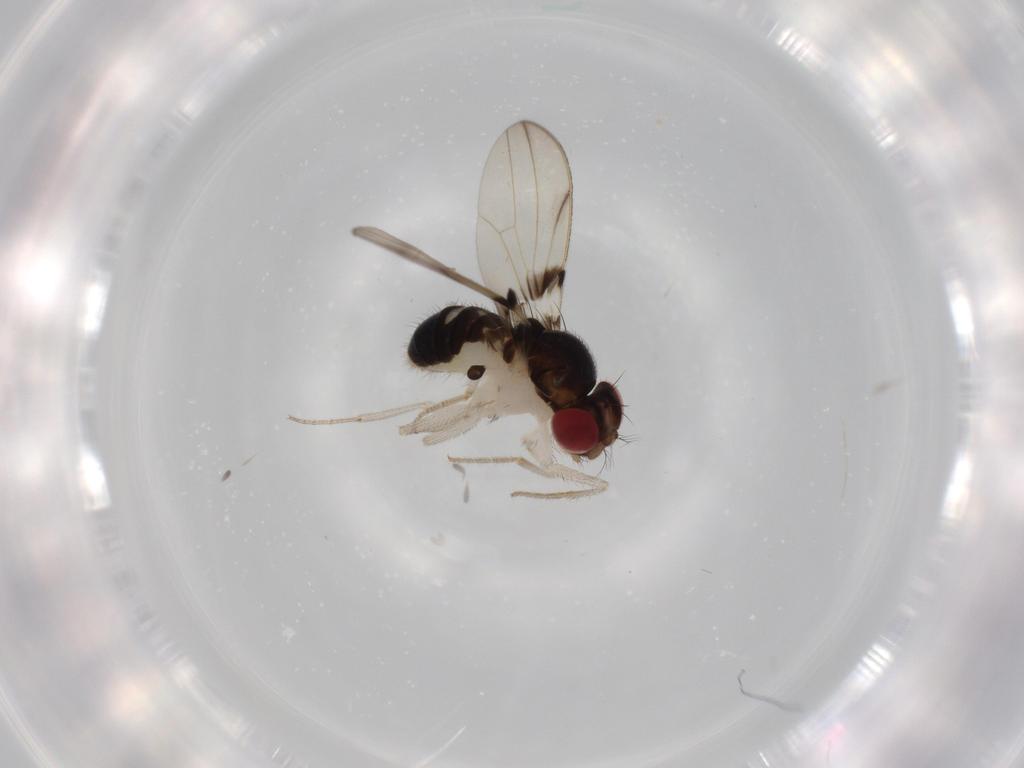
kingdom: Animalia
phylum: Arthropoda
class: Insecta
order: Diptera
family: Drosophilidae
